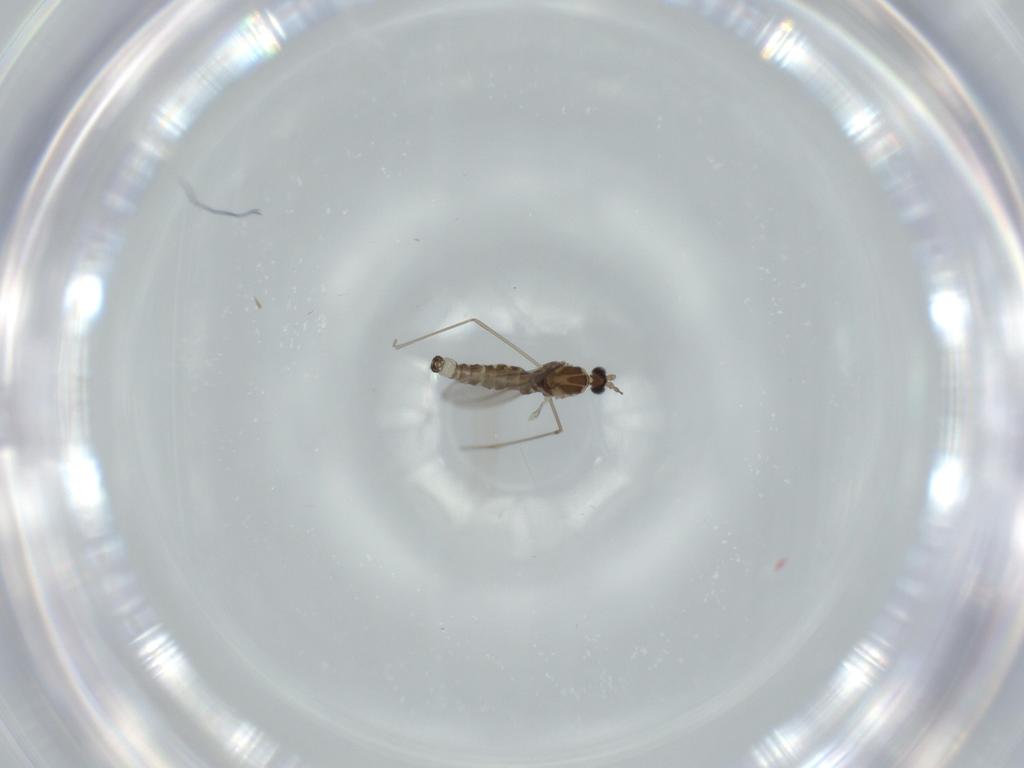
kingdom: Animalia
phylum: Arthropoda
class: Insecta
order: Diptera
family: Cecidomyiidae
